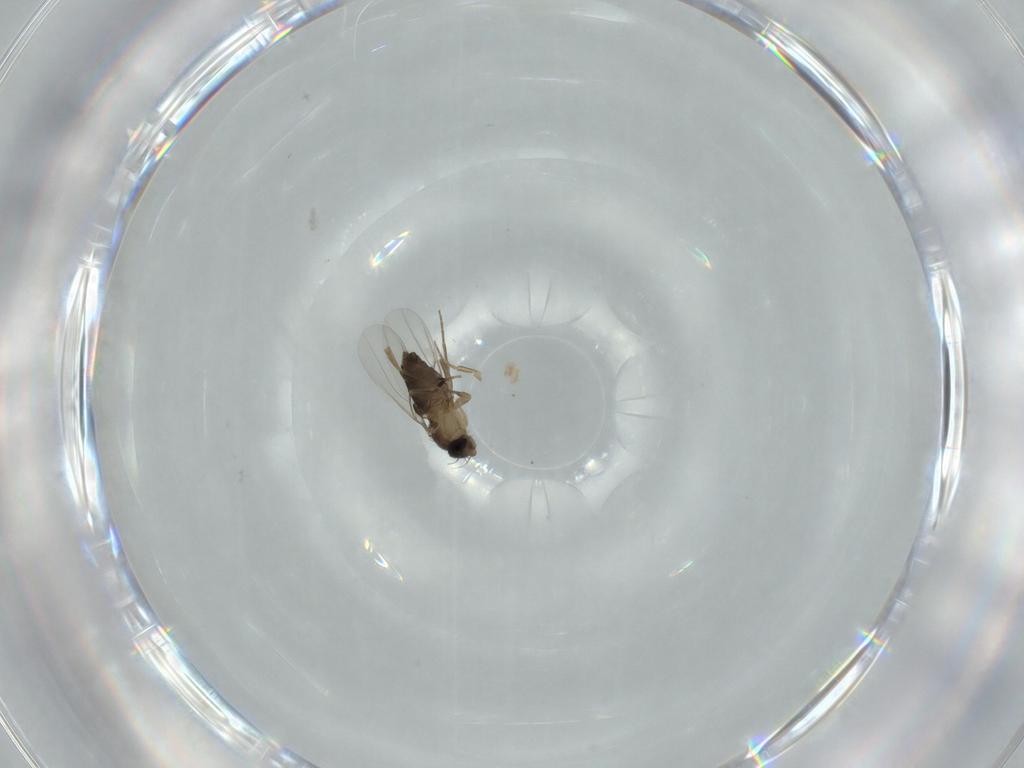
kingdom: Animalia
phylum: Arthropoda
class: Insecta
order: Diptera
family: Phoridae
